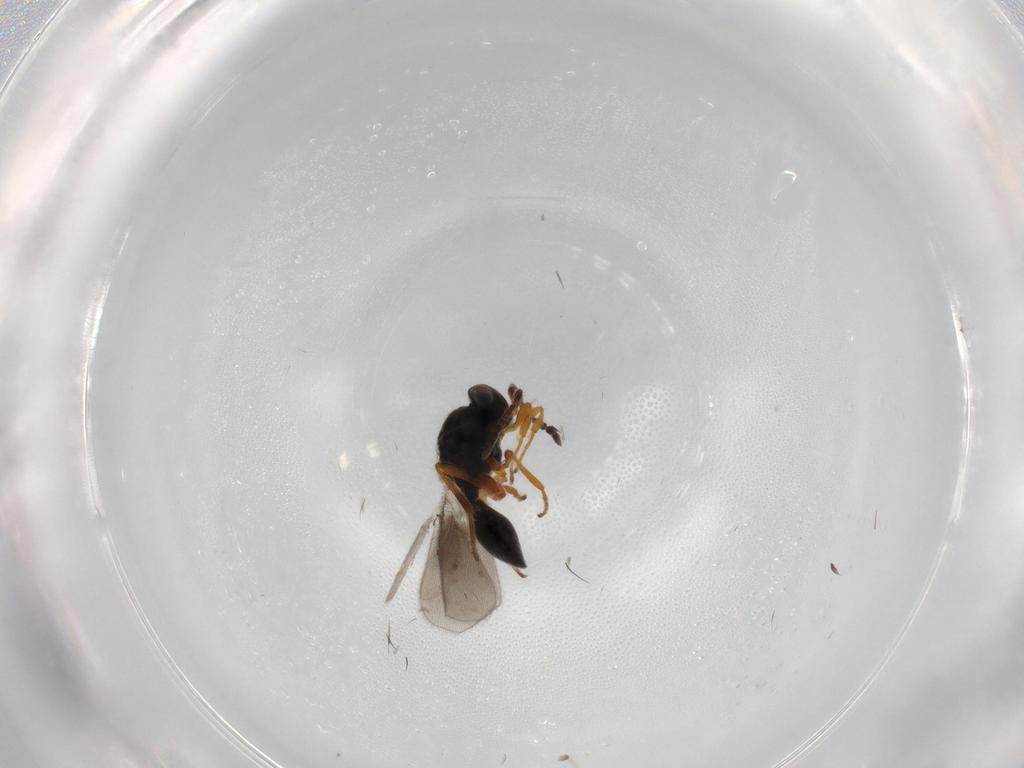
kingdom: Animalia
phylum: Arthropoda
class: Insecta
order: Hymenoptera
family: Platygastridae
